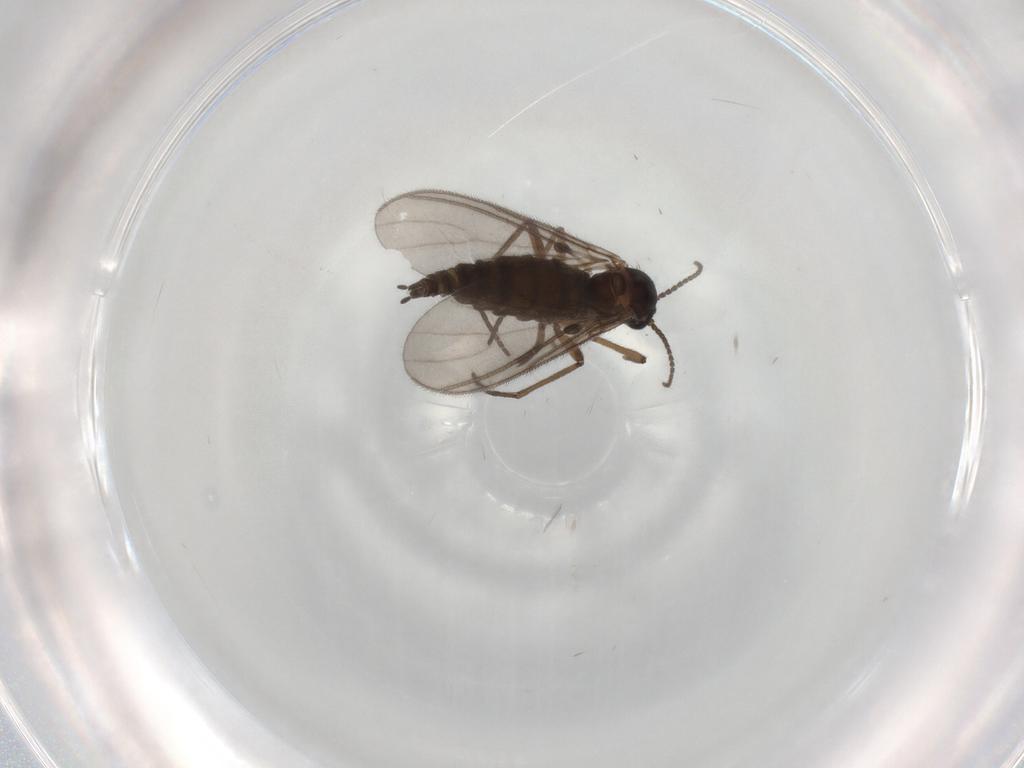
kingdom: Animalia
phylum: Arthropoda
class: Insecta
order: Diptera
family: Sciaridae
